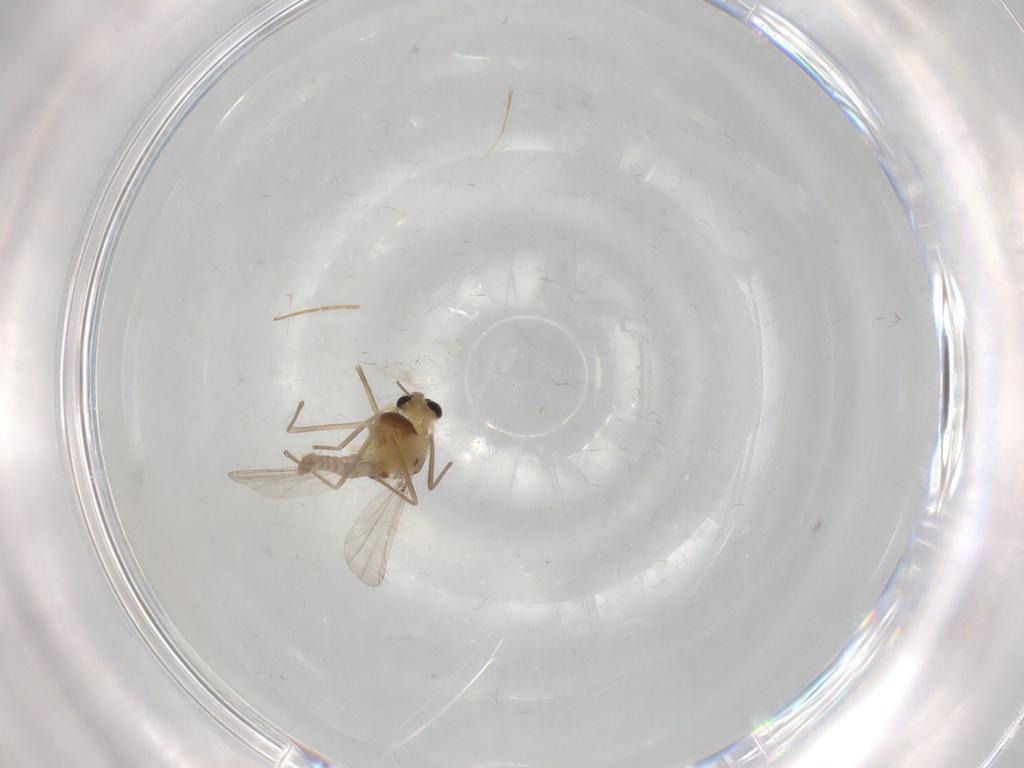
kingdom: Animalia
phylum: Arthropoda
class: Insecta
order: Diptera
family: Chironomidae
